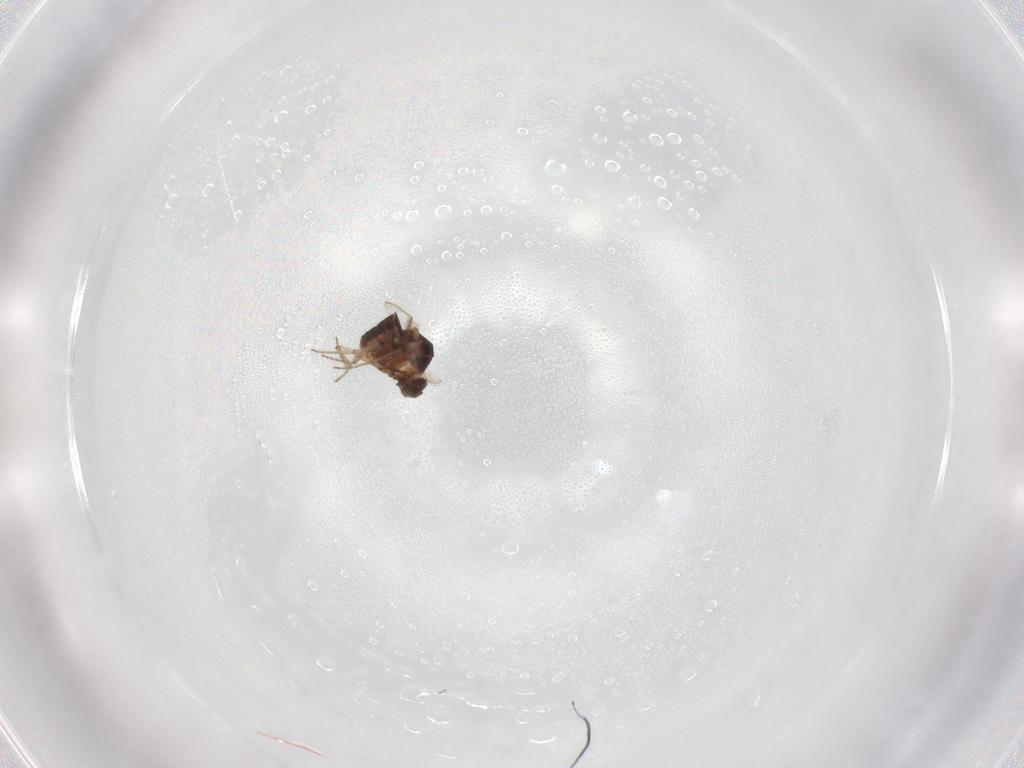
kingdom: Animalia
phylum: Arthropoda
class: Insecta
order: Diptera
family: Ceratopogonidae
